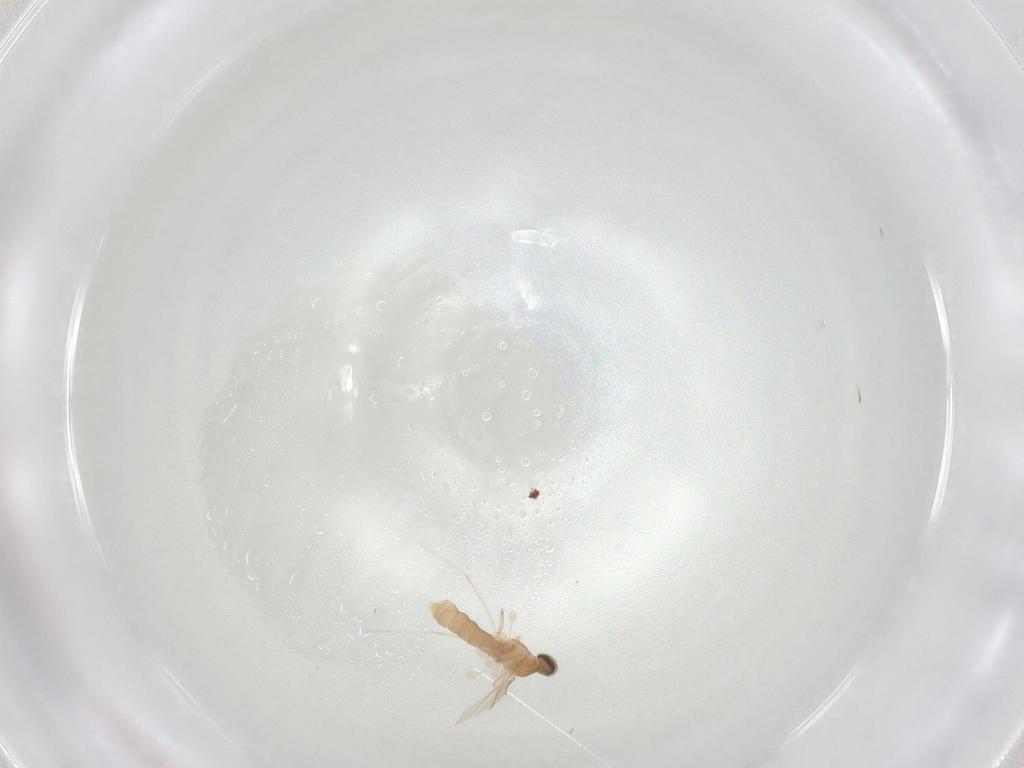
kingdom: Animalia
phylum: Arthropoda
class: Insecta
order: Diptera
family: Cecidomyiidae
